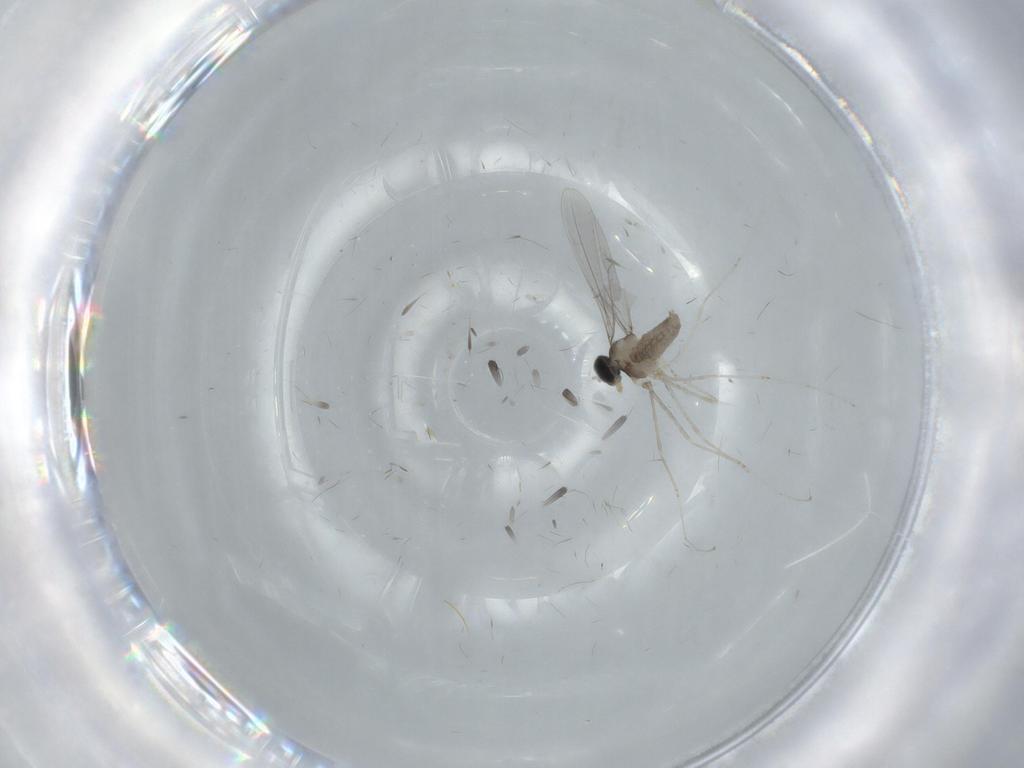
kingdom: Animalia
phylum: Arthropoda
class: Insecta
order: Diptera
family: Cecidomyiidae
